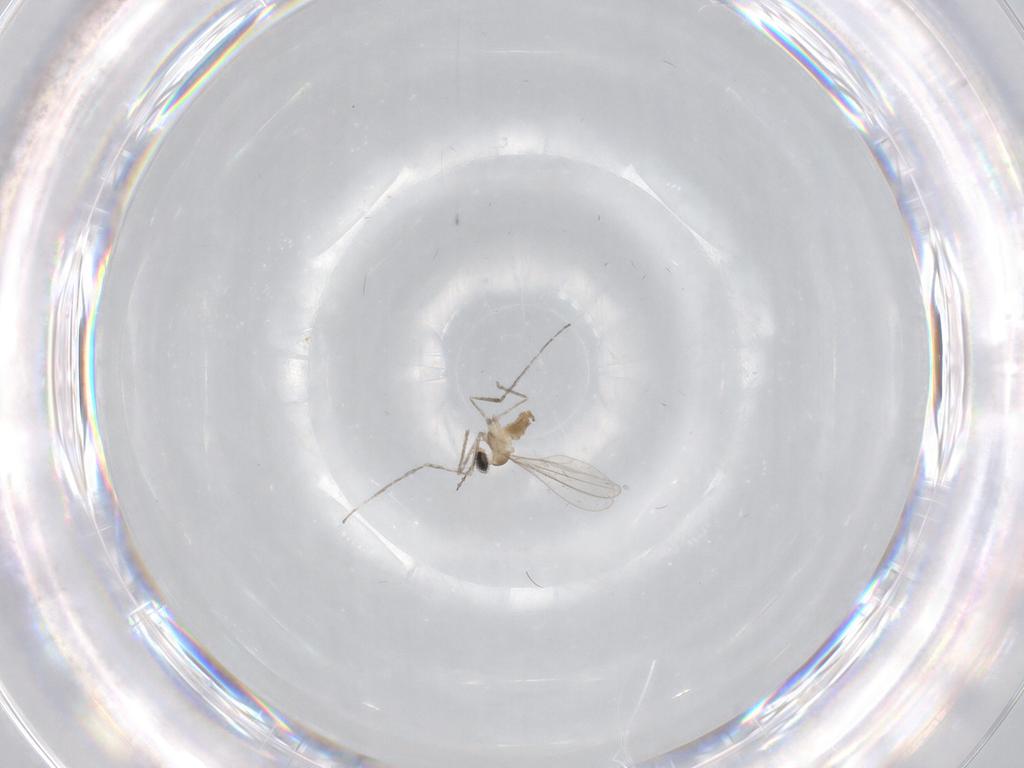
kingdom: Animalia
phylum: Arthropoda
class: Insecta
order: Diptera
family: Cecidomyiidae
